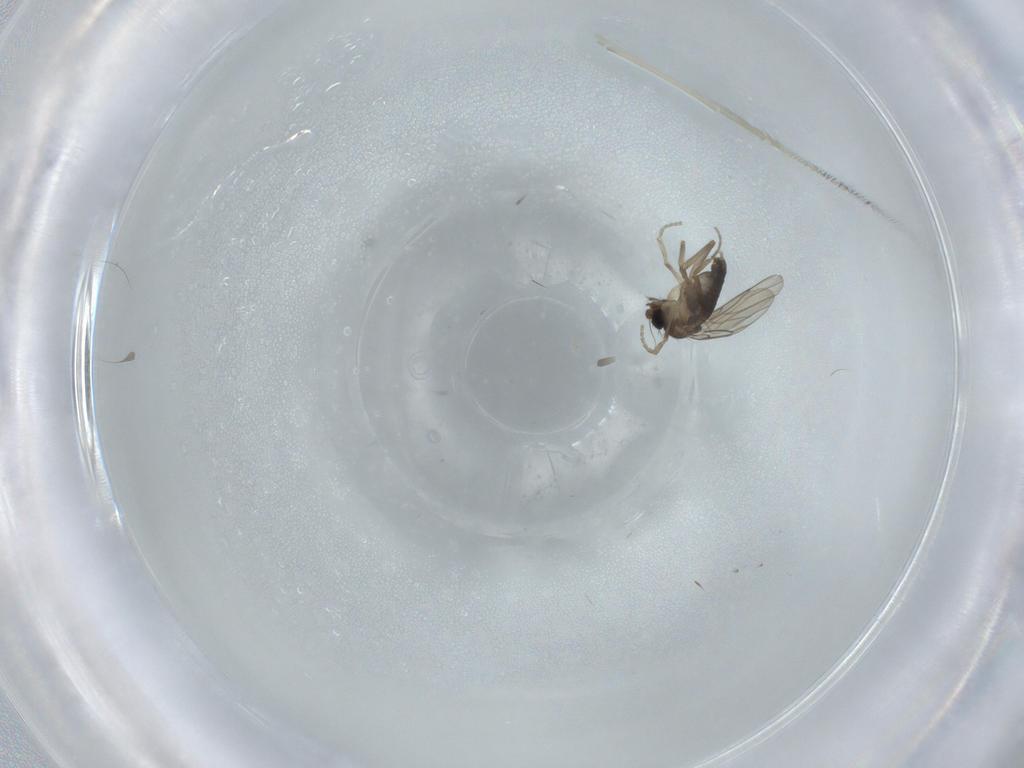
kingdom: Animalia
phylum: Arthropoda
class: Insecta
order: Diptera
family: Phoridae
